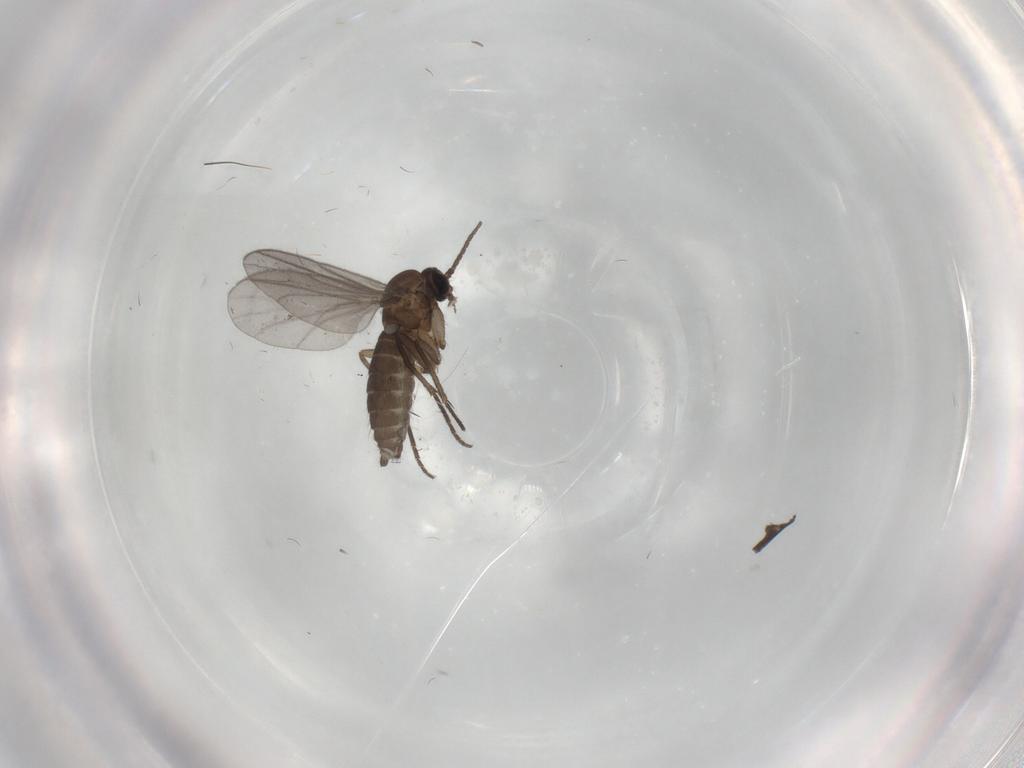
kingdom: Animalia
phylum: Arthropoda
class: Insecta
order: Diptera
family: Sciaridae
